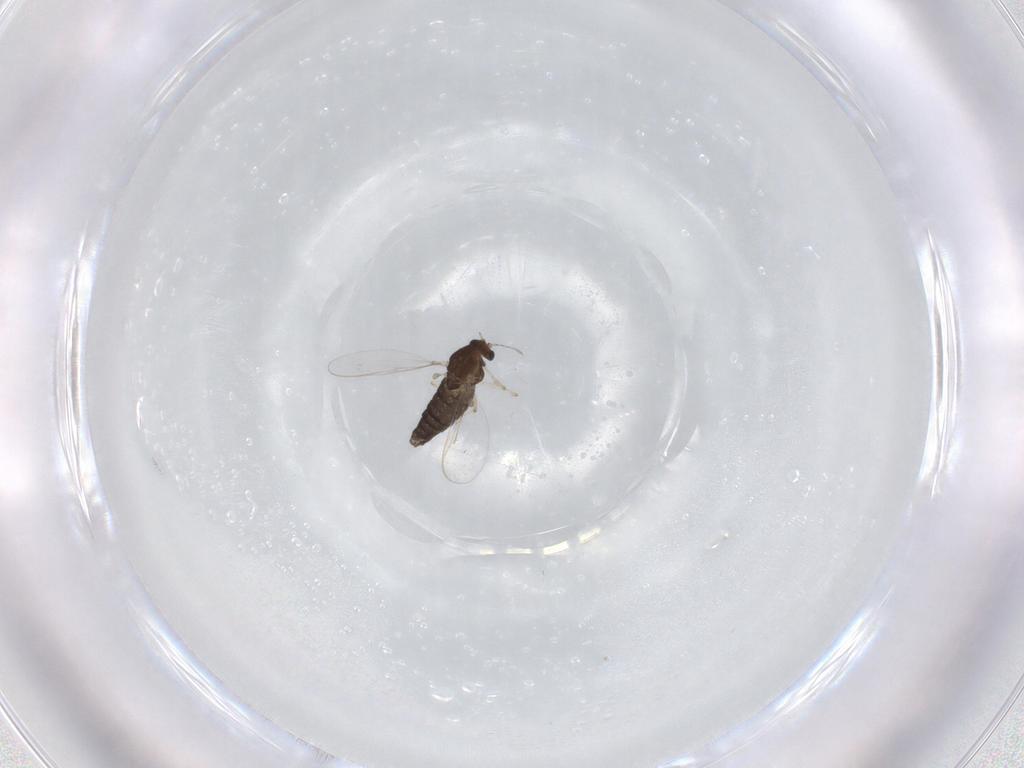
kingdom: Animalia
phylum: Arthropoda
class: Insecta
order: Diptera
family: Chironomidae
